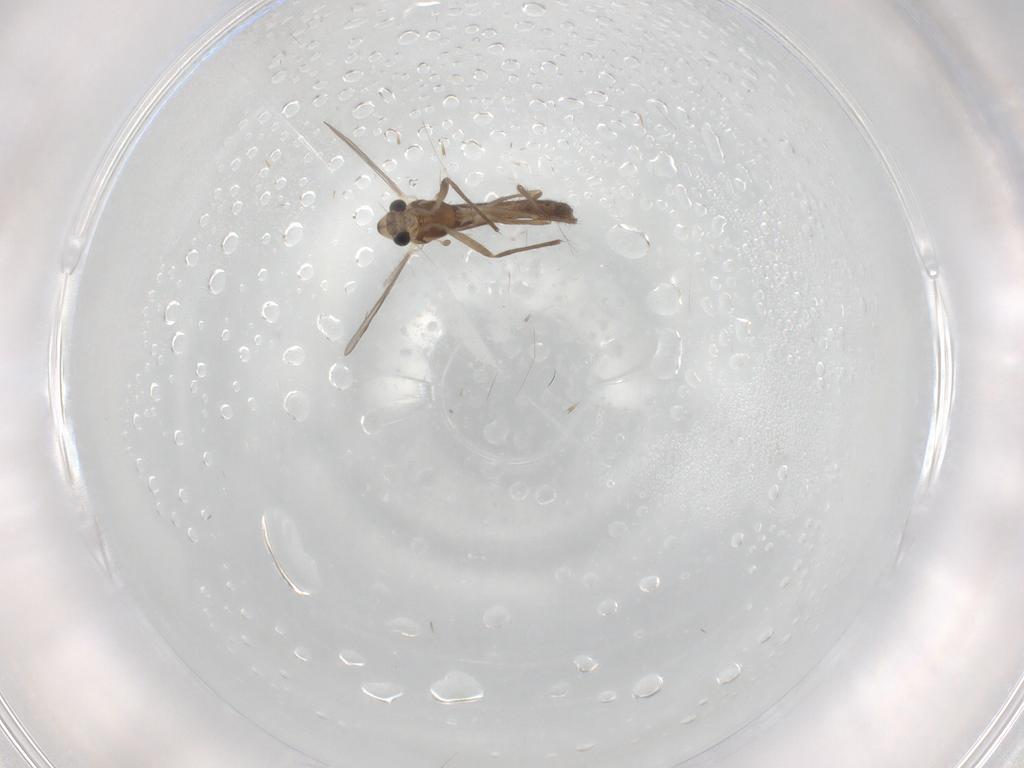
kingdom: Animalia
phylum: Arthropoda
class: Insecta
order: Diptera
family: Chironomidae
